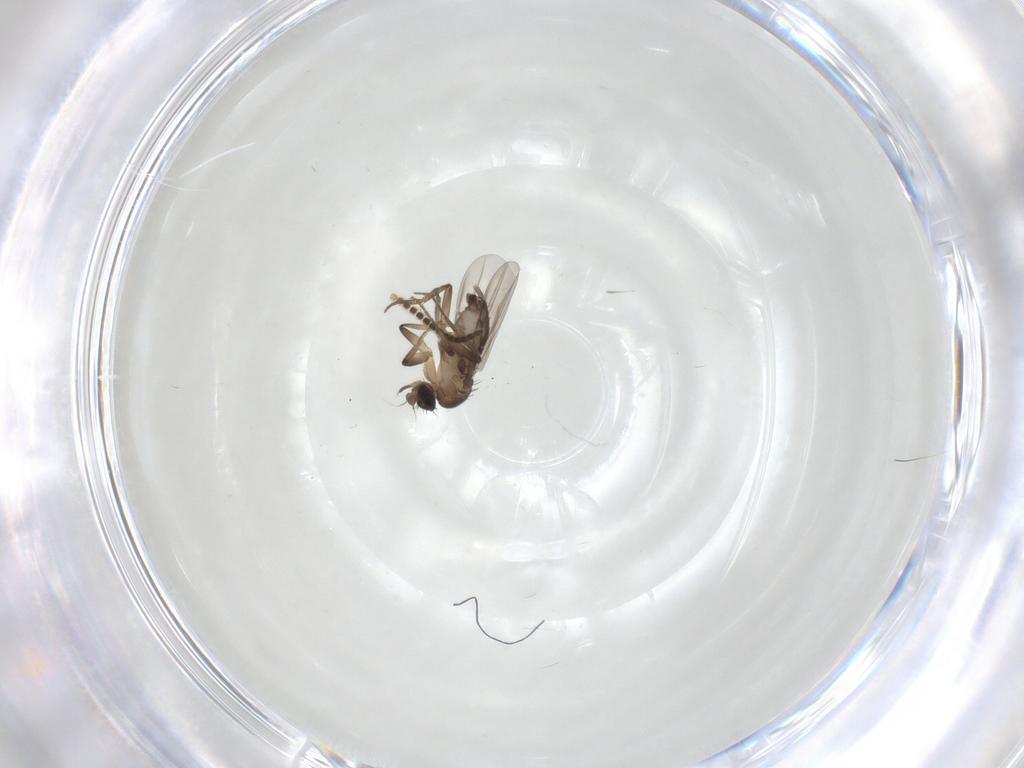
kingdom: Animalia
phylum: Arthropoda
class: Insecta
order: Diptera
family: Phoridae
